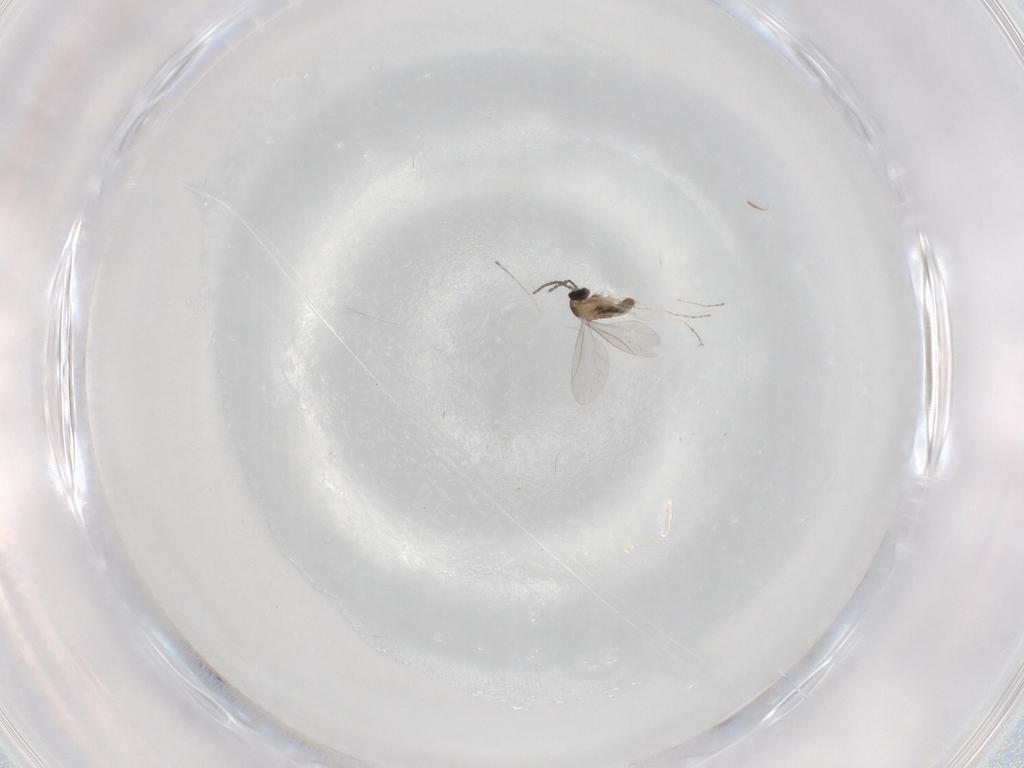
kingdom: Animalia
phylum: Arthropoda
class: Insecta
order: Diptera
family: Cecidomyiidae
